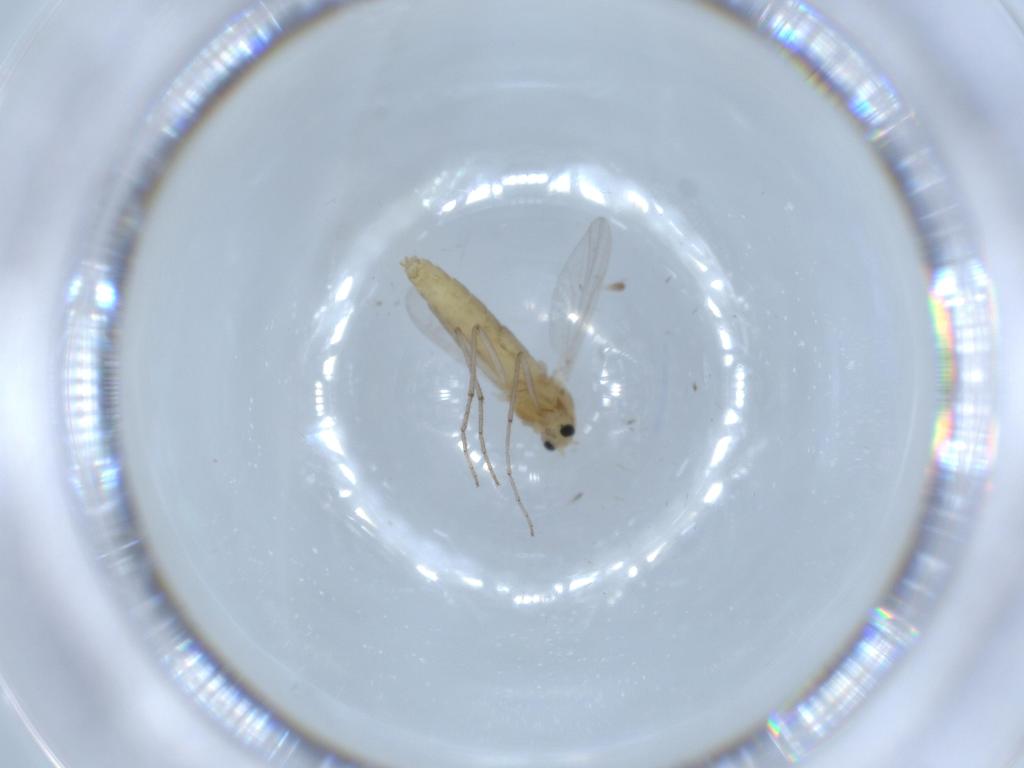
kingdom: Animalia
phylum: Arthropoda
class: Insecta
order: Diptera
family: Chironomidae
